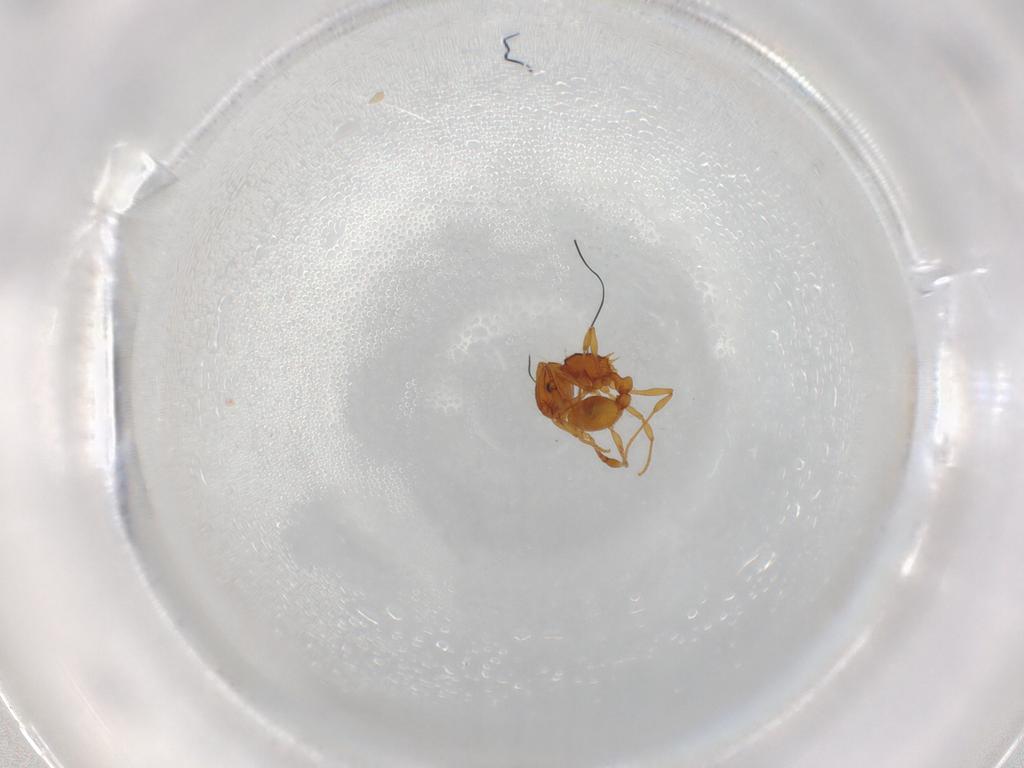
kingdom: Animalia
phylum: Arthropoda
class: Insecta
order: Hymenoptera
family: Formicidae
